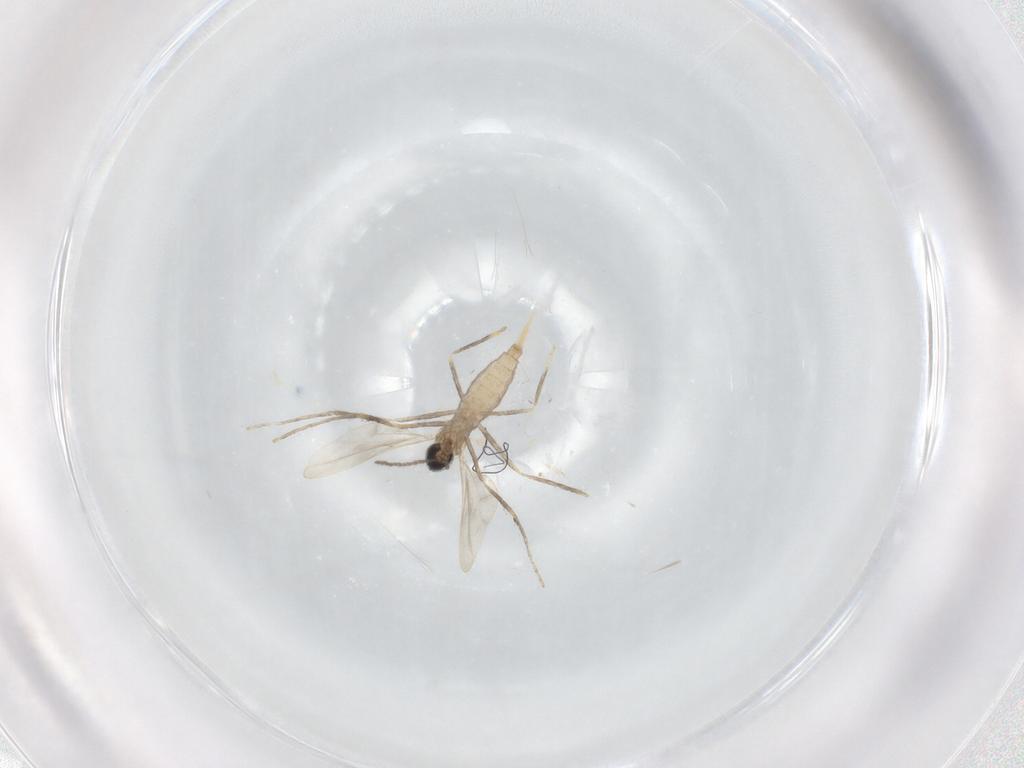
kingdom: Animalia
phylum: Arthropoda
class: Insecta
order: Diptera
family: Cecidomyiidae
